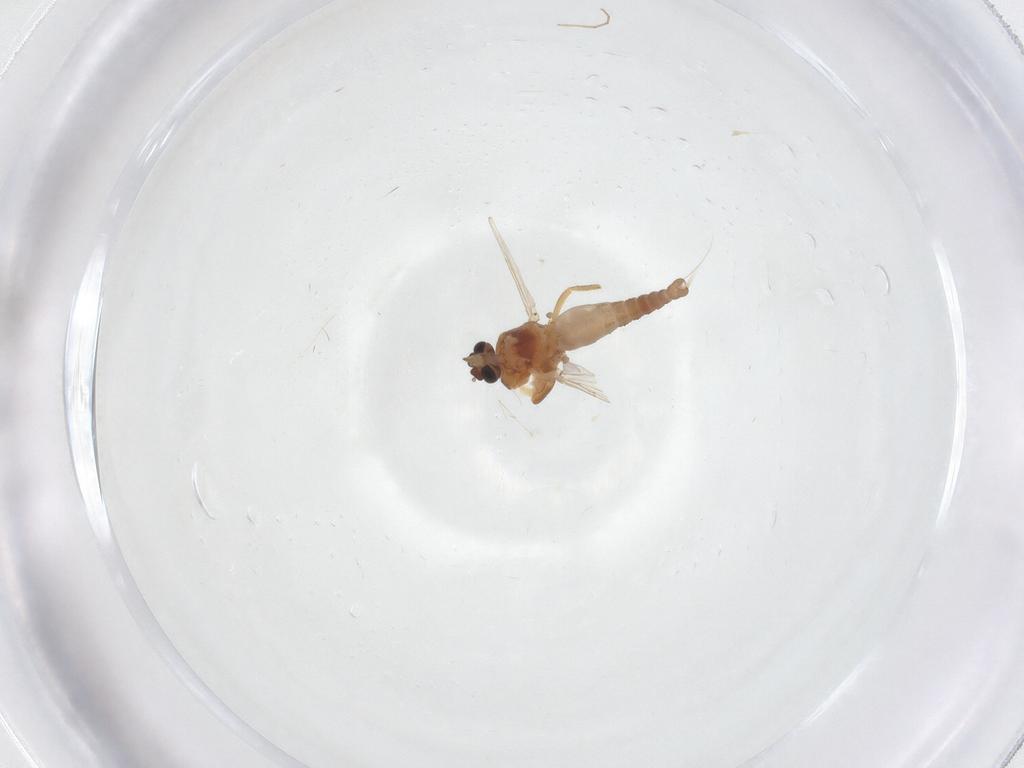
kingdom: Animalia
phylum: Arthropoda
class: Insecta
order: Diptera
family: Ceratopogonidae
